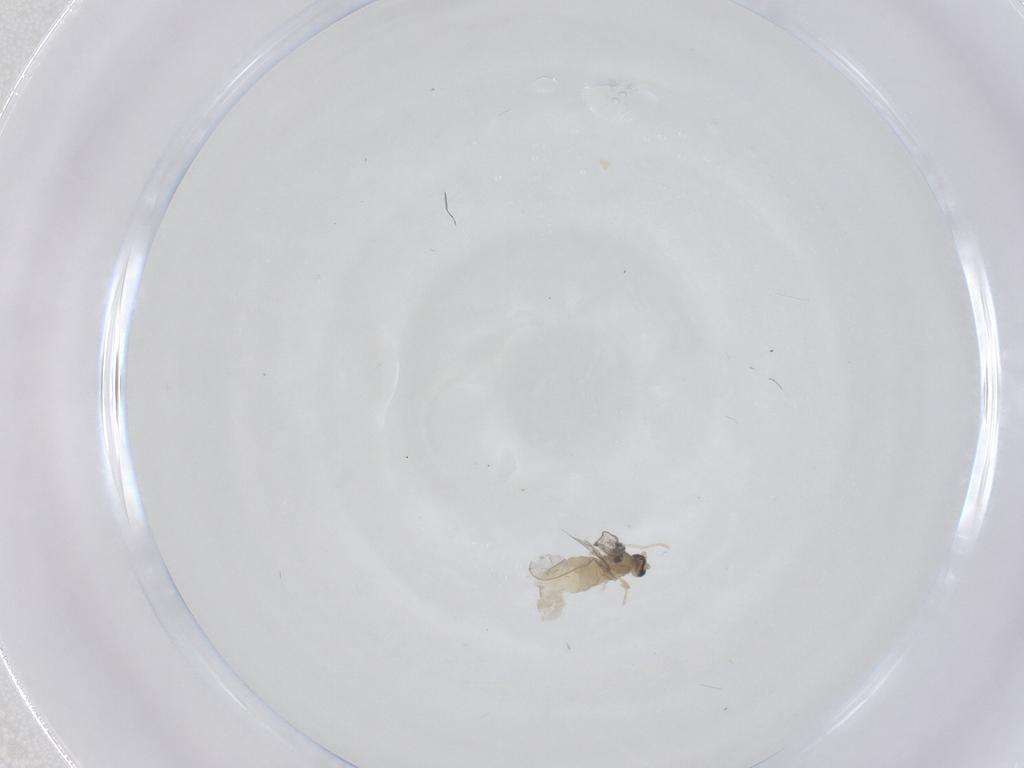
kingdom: Animalia
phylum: Arthropoda
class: Insecta
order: Diptera
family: Cecidomyiidae
